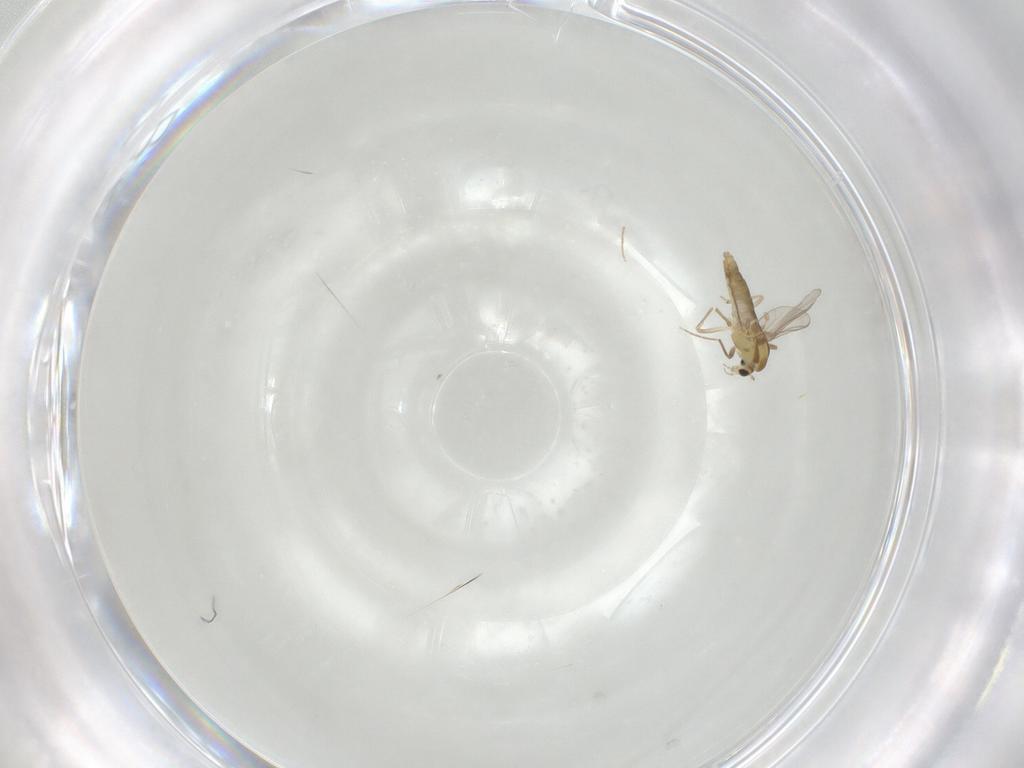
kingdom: Animalia
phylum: Arthropoda
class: Insecta
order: Diptera
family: Chironomidae
